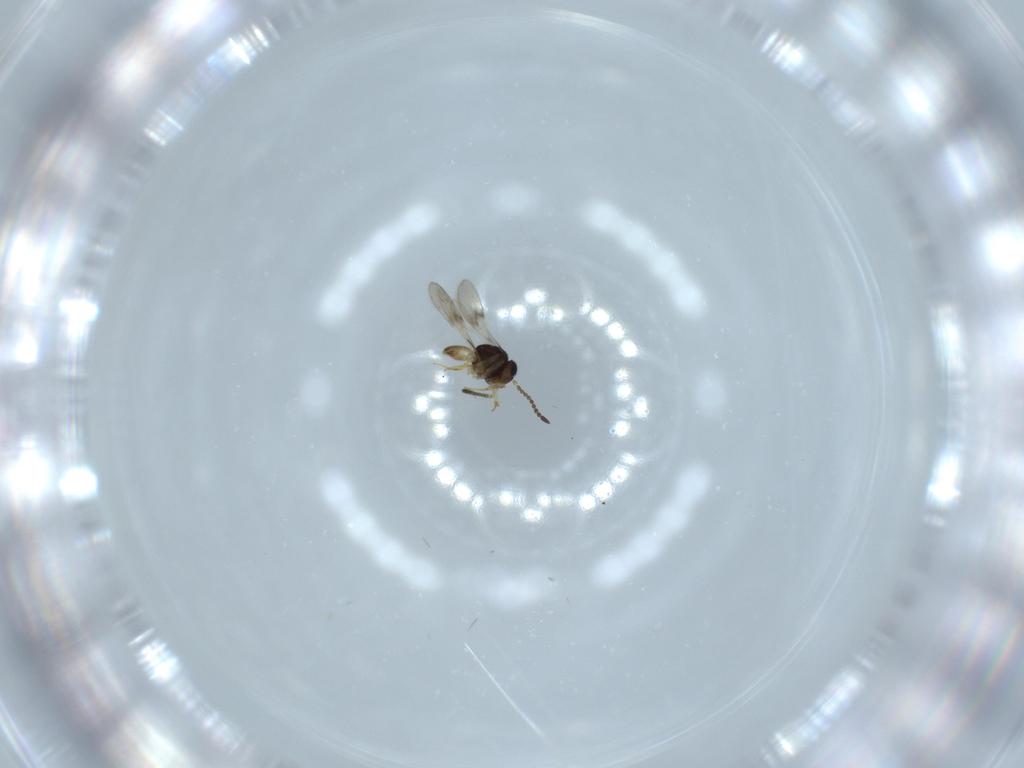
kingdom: Animalia
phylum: Arthropoda
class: Insecta
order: Hymenoptera
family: Scelionidae
